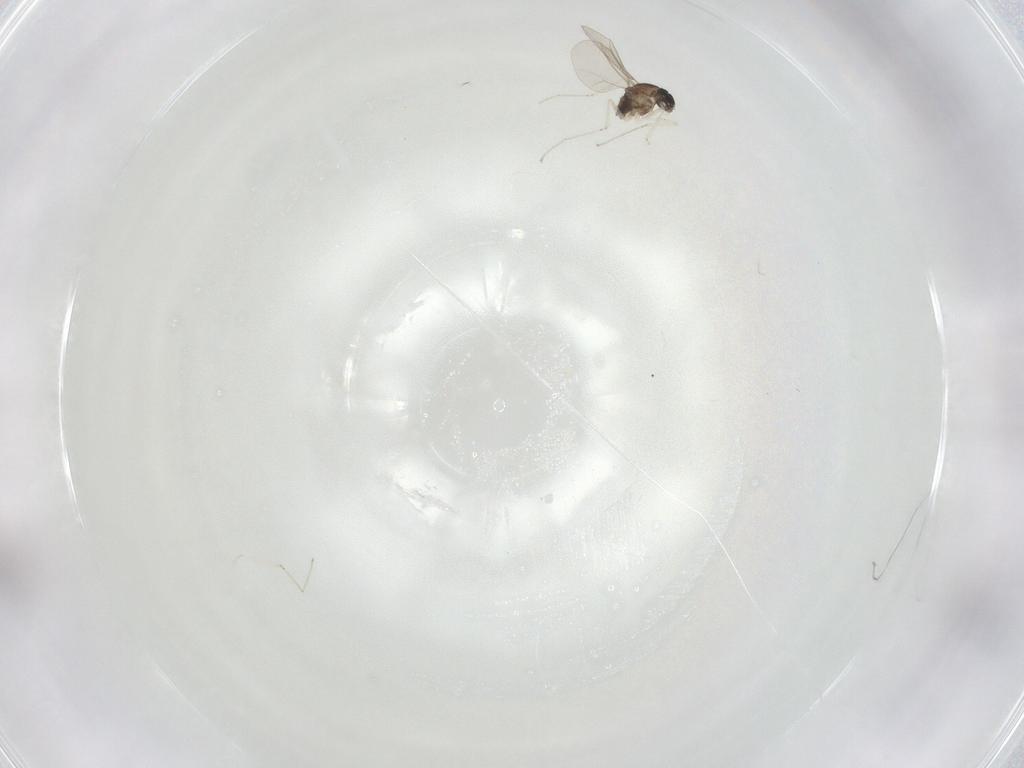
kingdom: Animalia
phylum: Arthropoda
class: Insecta
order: Diptera
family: Cecidomyiidae
